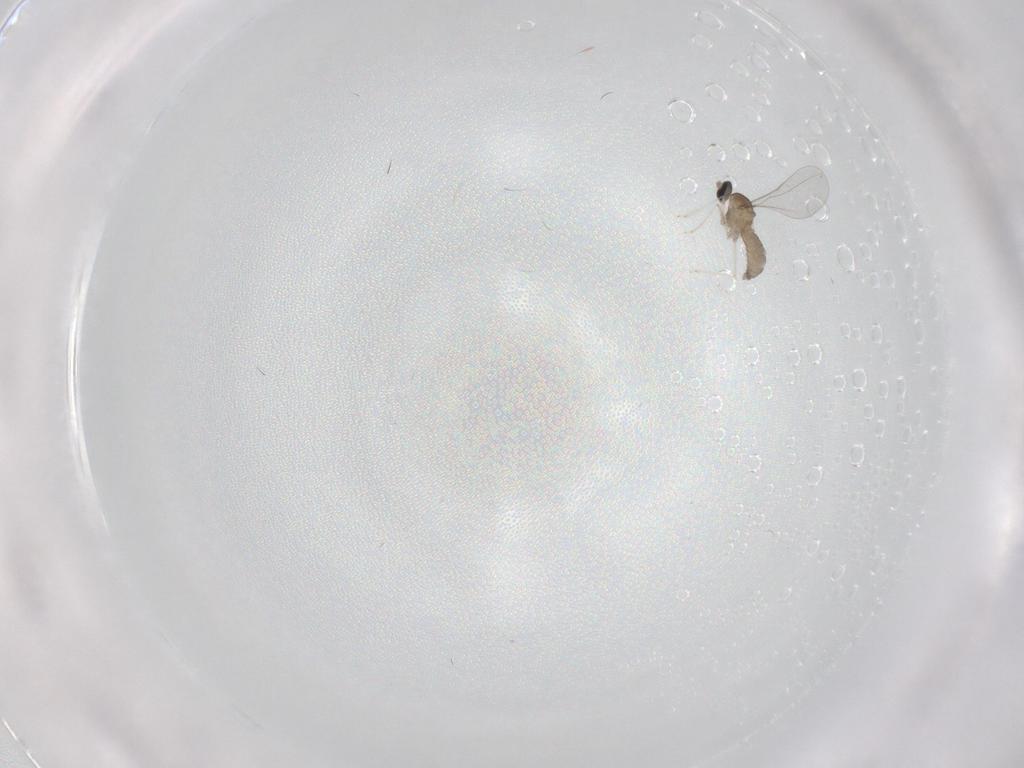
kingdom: Animalia
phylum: Arthropoda
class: Insecta
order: Diptera
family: Cecidomyiidae
